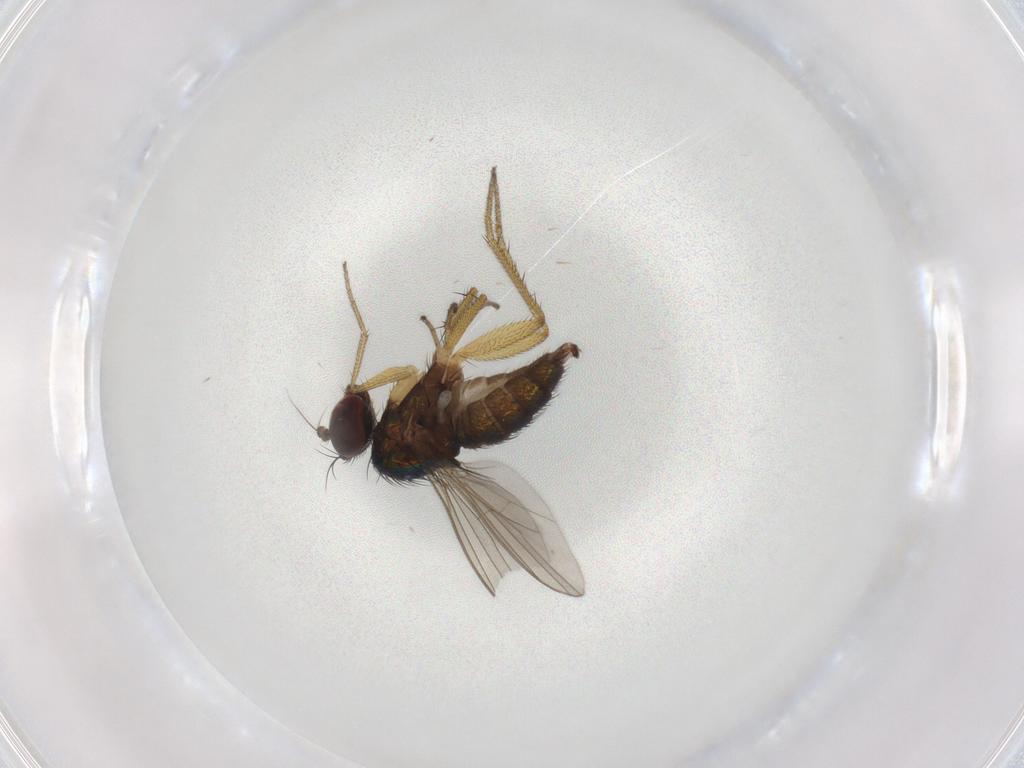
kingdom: Animalia
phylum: Arthropoda
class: Insecta
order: Diptera
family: Dolichopodidae
